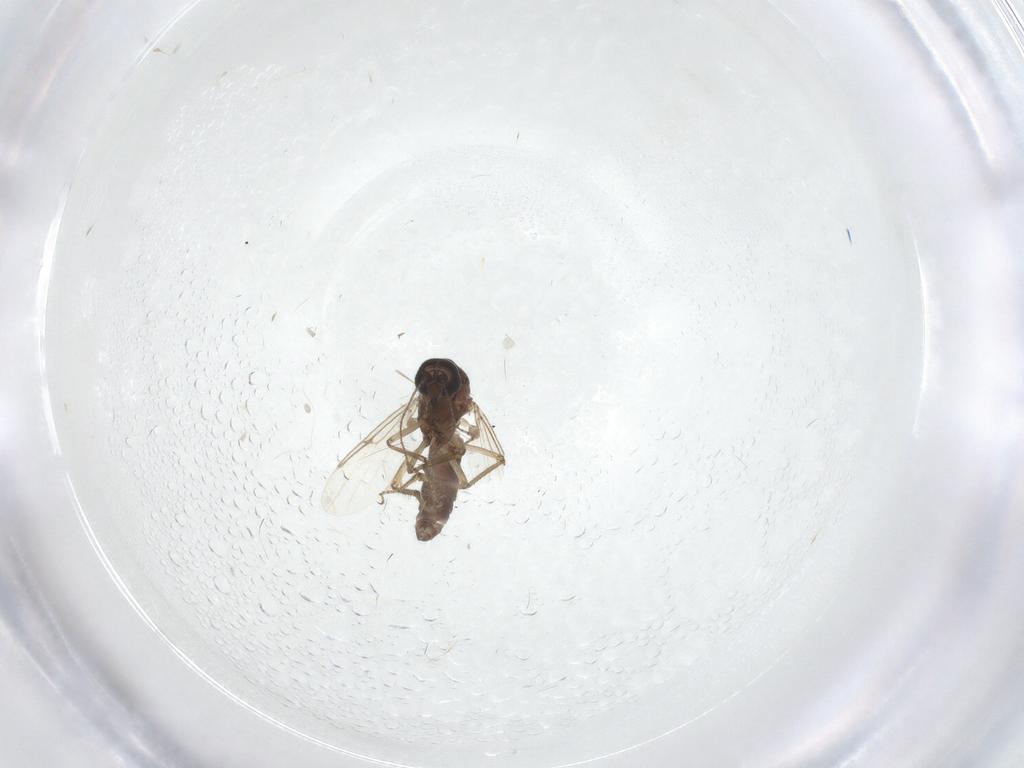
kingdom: Animalia
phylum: Arthropoda
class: Insecta
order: Diptera
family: Ceratopogonidae
